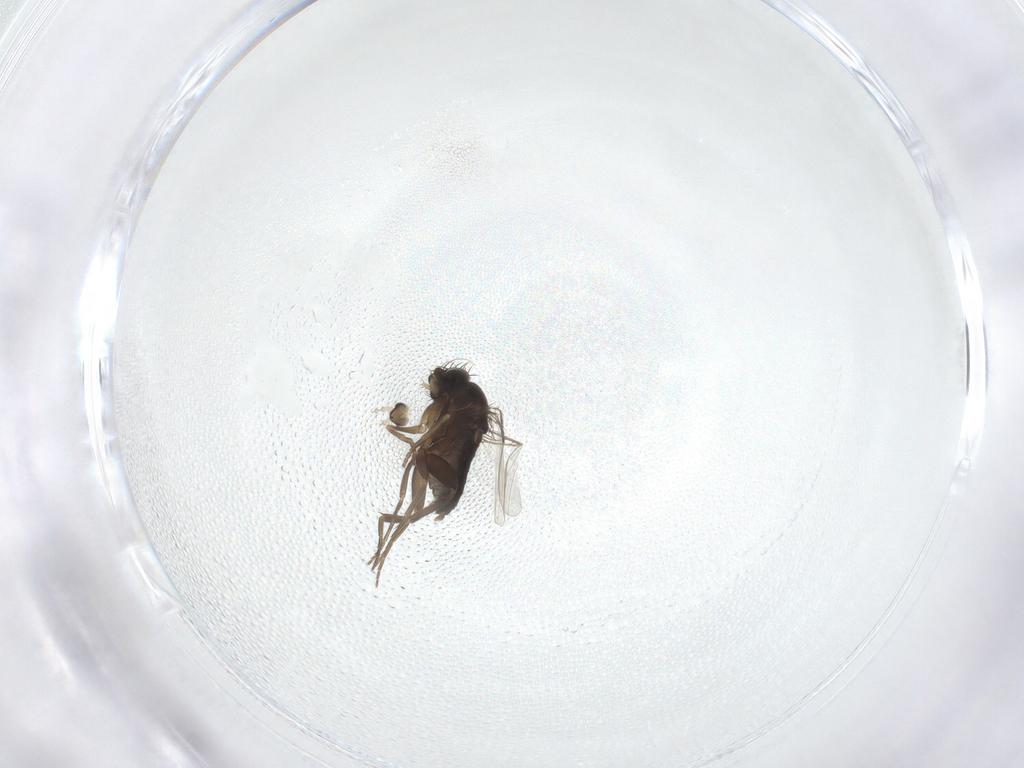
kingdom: Animalia
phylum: Arthropoda
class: Insecta
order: Diptera
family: Phoridae
